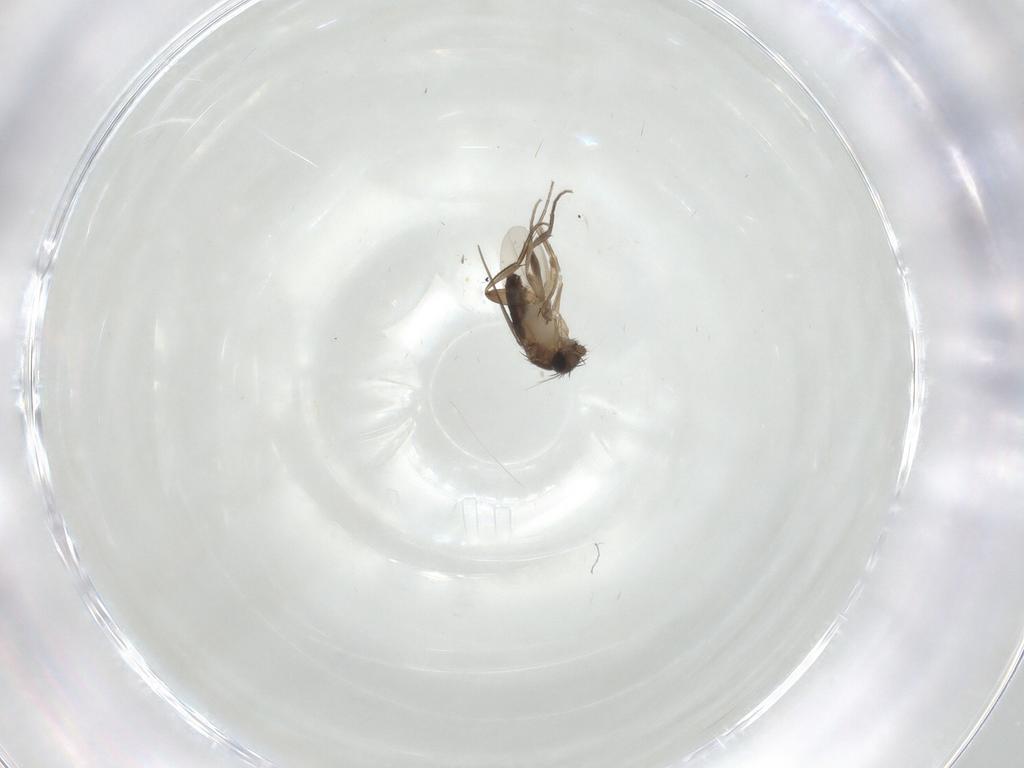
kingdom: Animalia
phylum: Arthropoda
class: Insecta
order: Diptera
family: Phoridae
